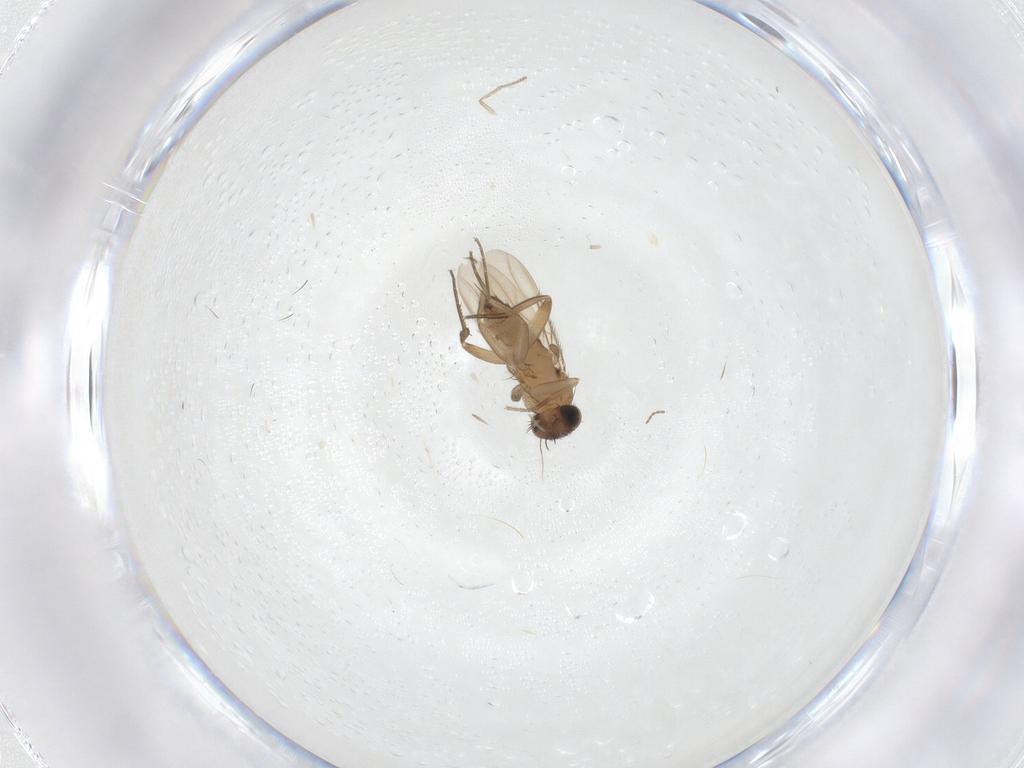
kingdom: Animalia
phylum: Arthropoda
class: Insecta
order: Diptera
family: Phoridae
